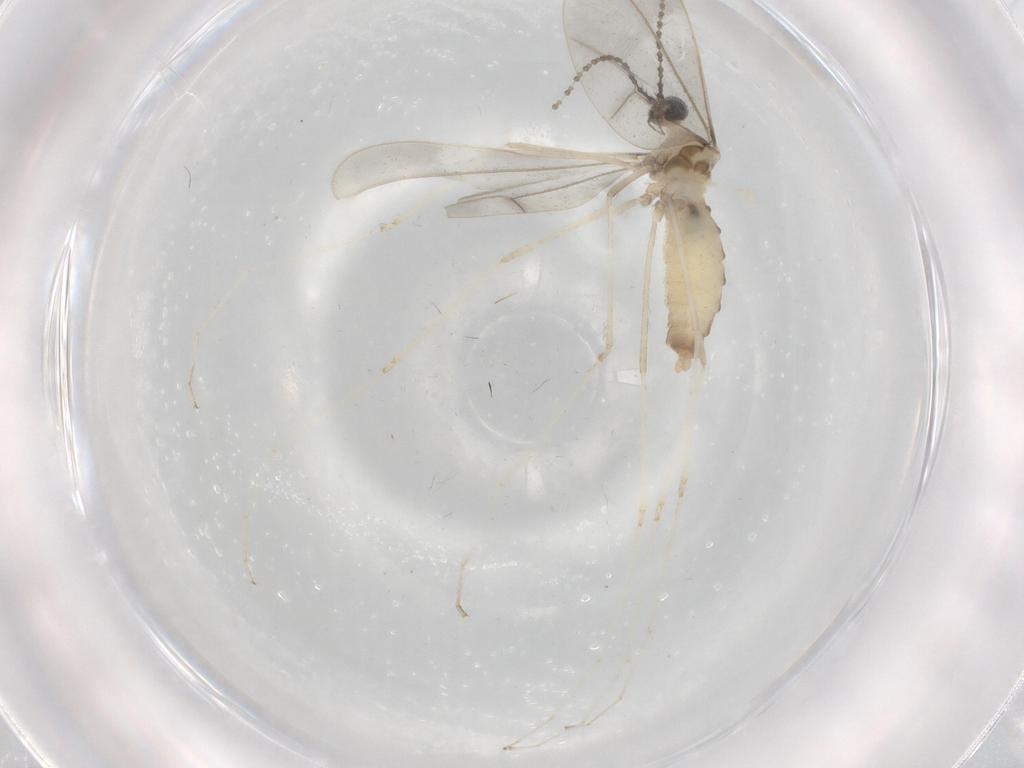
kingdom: Animalia
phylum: Arthropoda
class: Insecta
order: Diptera
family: Cecidomyiidae
